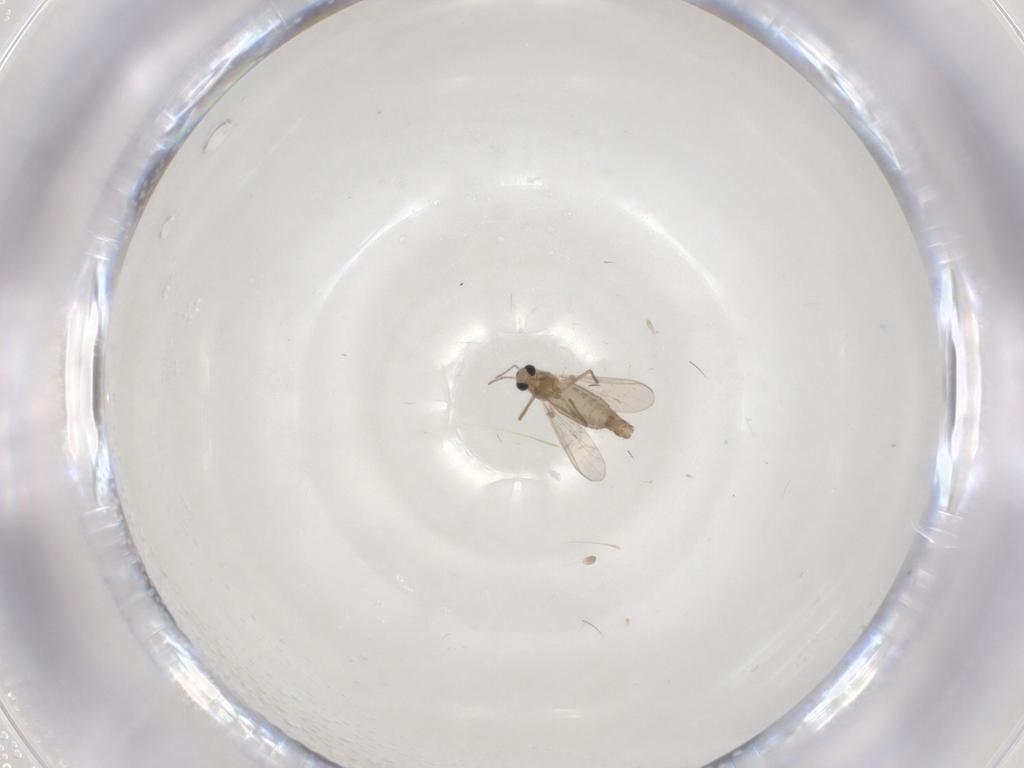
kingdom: Animalia
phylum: Arthropoda
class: Insecta
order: Diptera
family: Chironomidae
